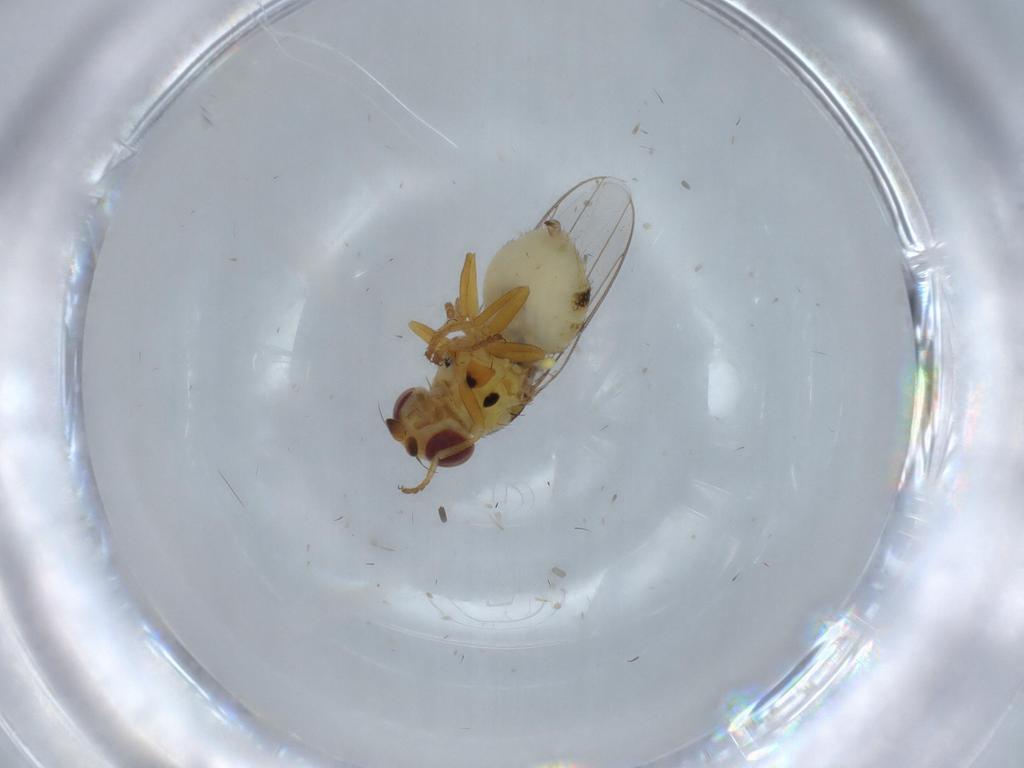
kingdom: Animalia
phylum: Arthropoda
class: Insecta
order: Diptera
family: Chloropidae
